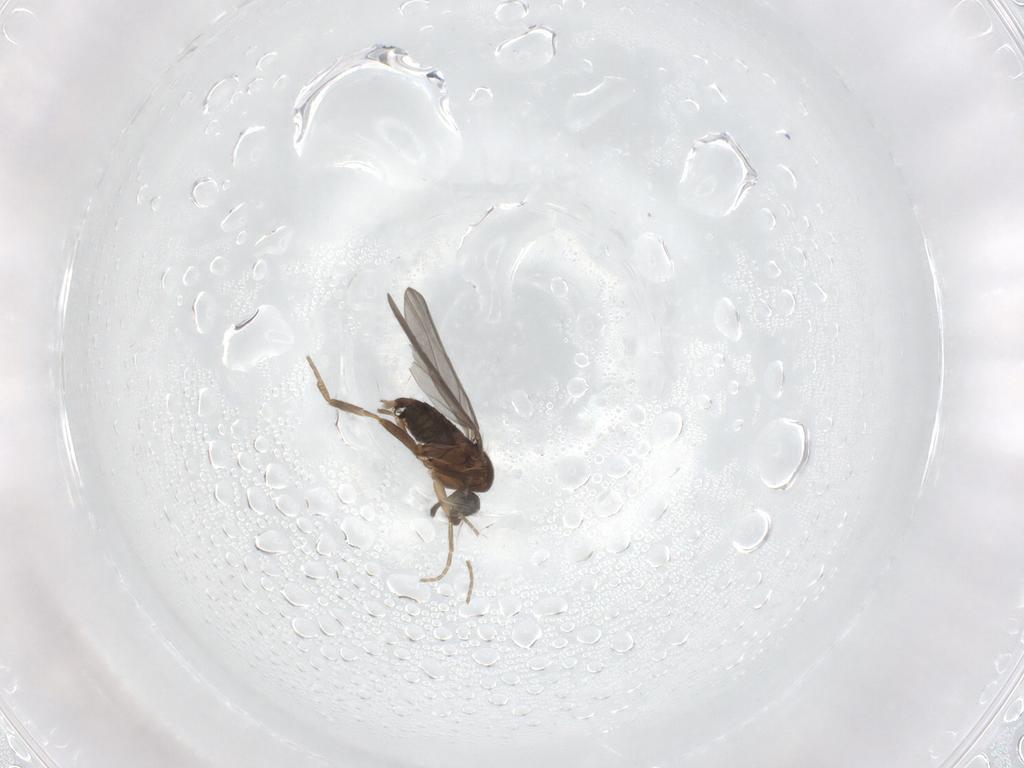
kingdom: Animalia
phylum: Arthropoda
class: Insecta
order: Diptera
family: Phoridae
